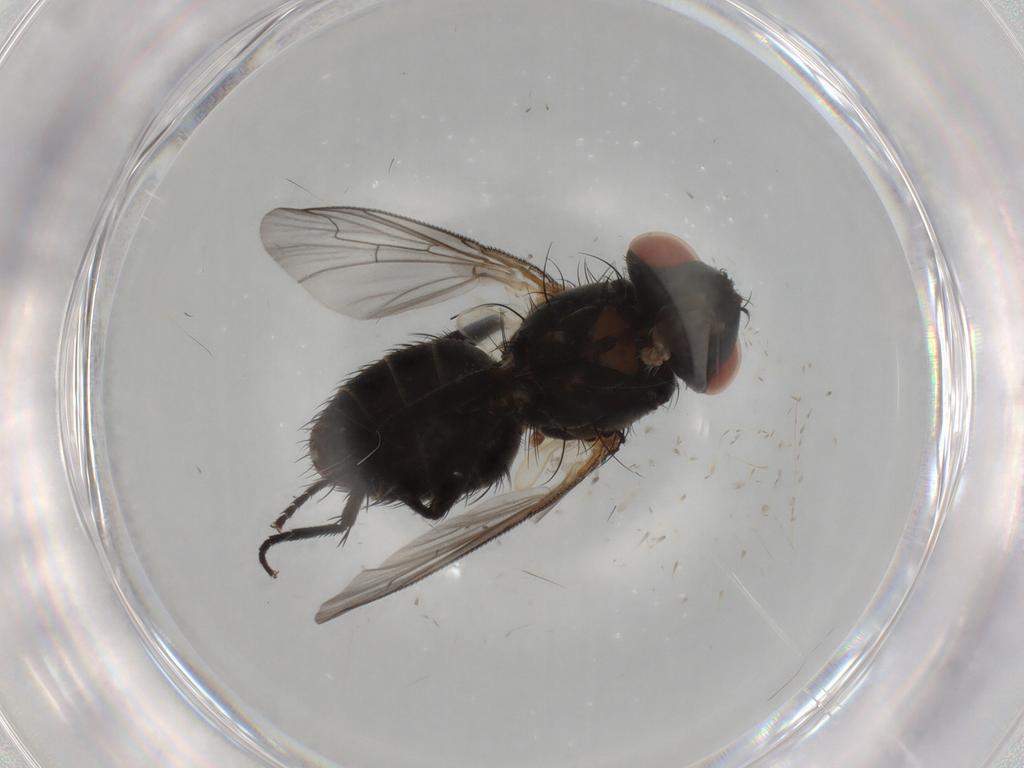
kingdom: Animalia
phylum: Arthropoda
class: Insecta
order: Diptera
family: Sarcophagidae
